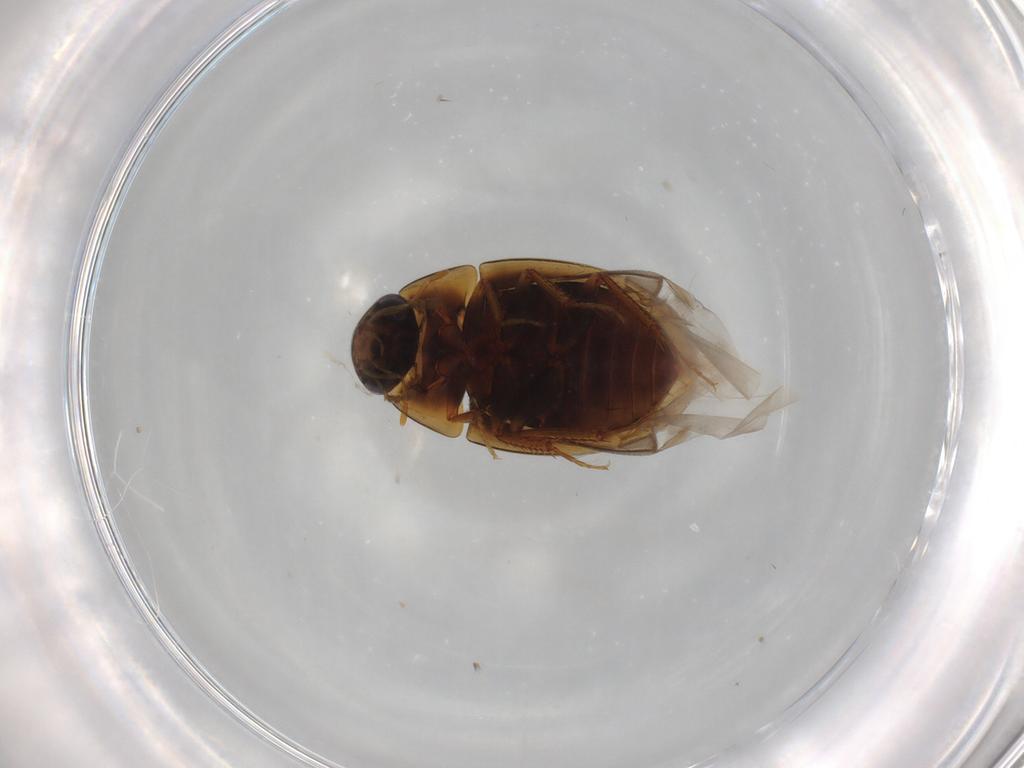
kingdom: Animalia
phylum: Arthropoda
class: Insecta
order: Coleoptera
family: Hydrophilidae
